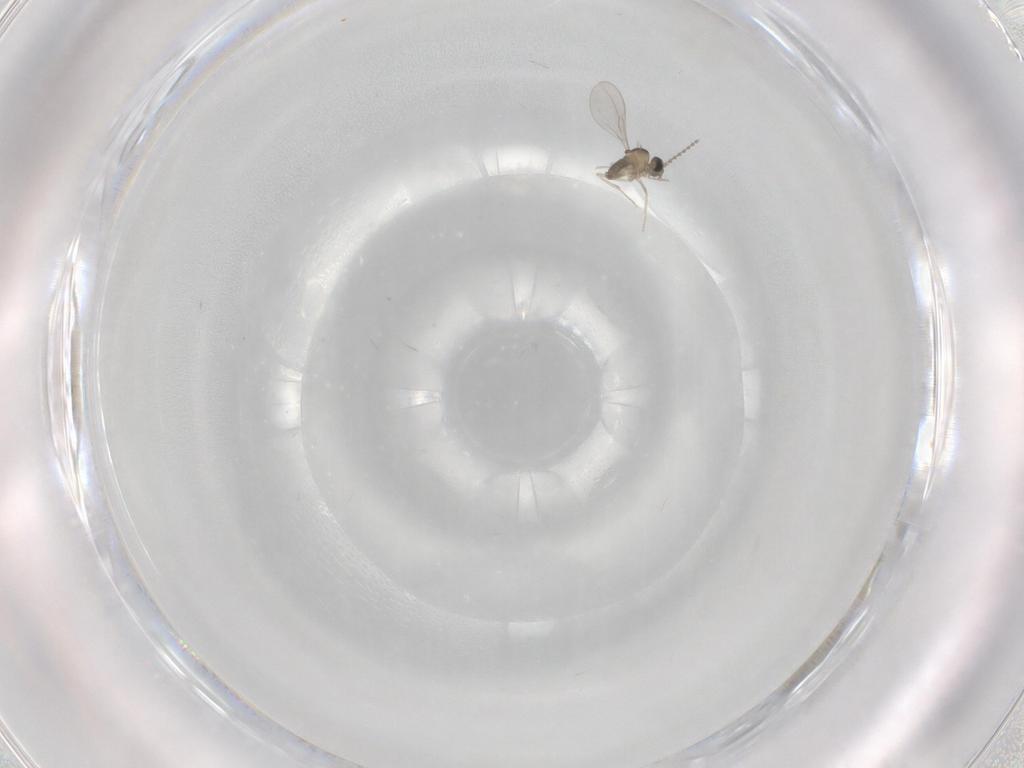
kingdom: Animalia
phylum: Arthropoda
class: Insecta
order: Diptera
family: Cecidomyiidae
